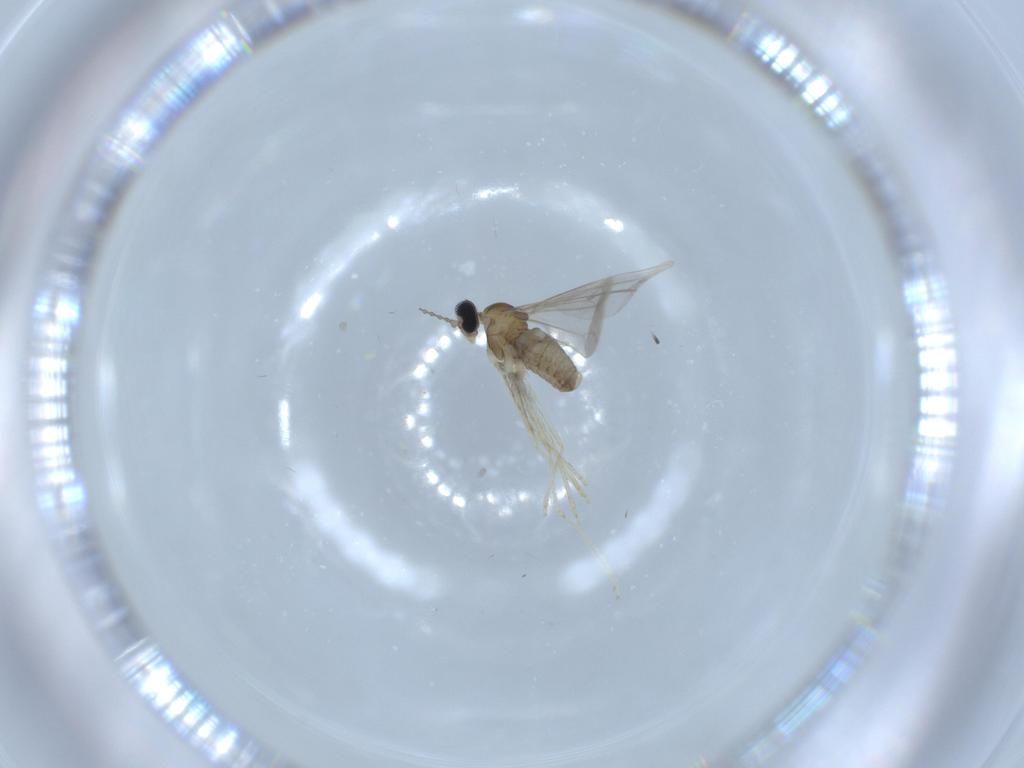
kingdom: Animalia
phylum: Arthropoda
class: Insecta
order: Diptera
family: Cecidomyiidae
